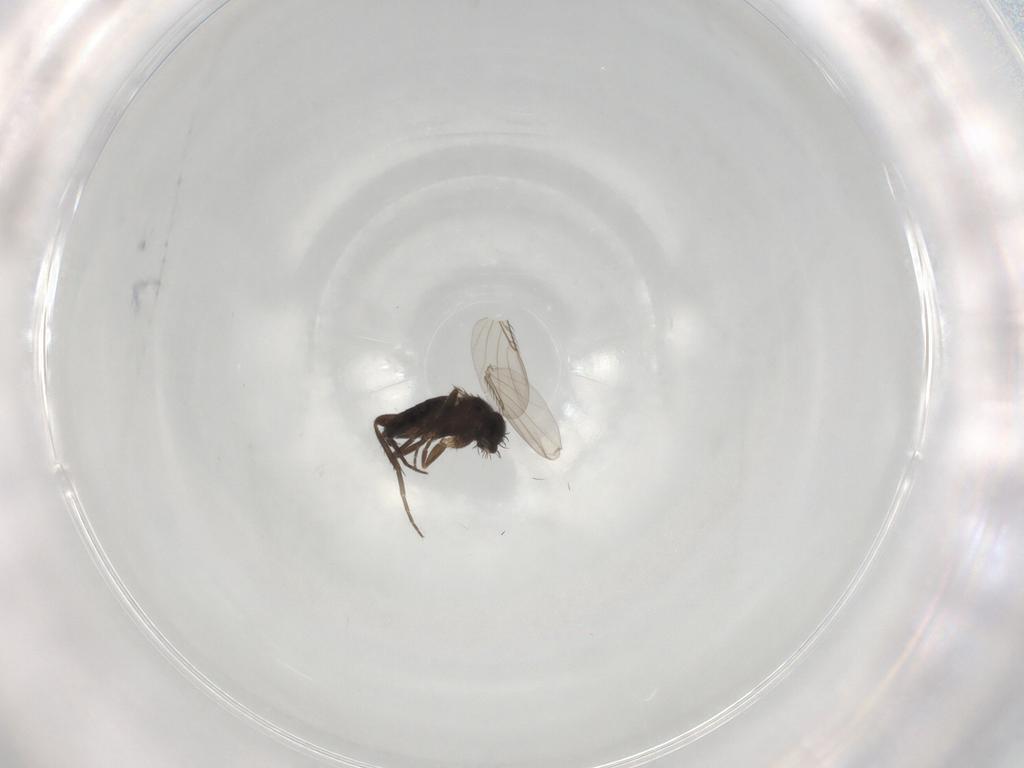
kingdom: Animalia
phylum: Arthropoda
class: Insecta
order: Diptera
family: Phoridae
